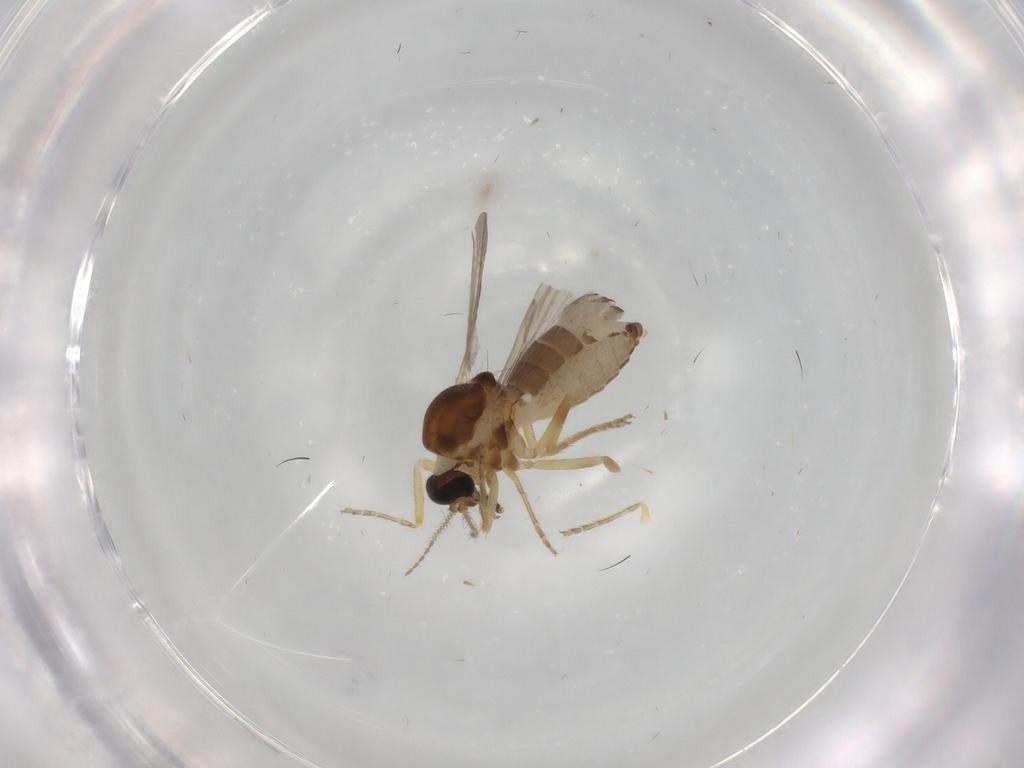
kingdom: Animalia
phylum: Arthropoda
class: Insecta
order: Diptera
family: Ceratopogonidae
